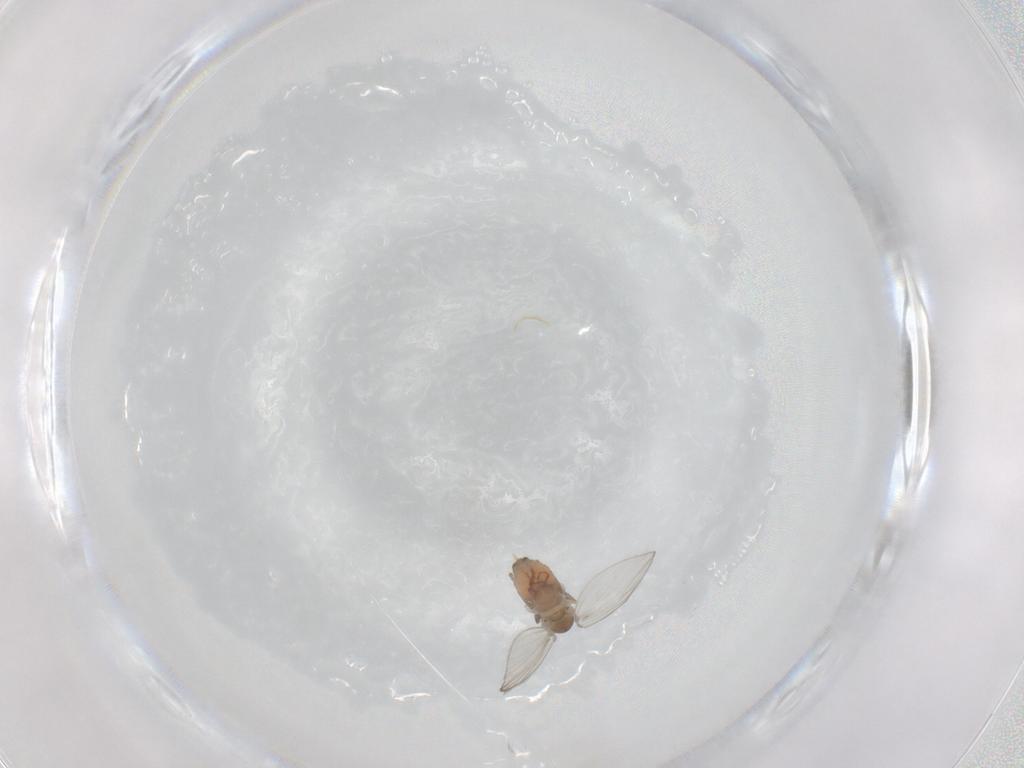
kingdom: Animalia
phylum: Arthropoda
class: Insecta
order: Diptera
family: Psychodidae
